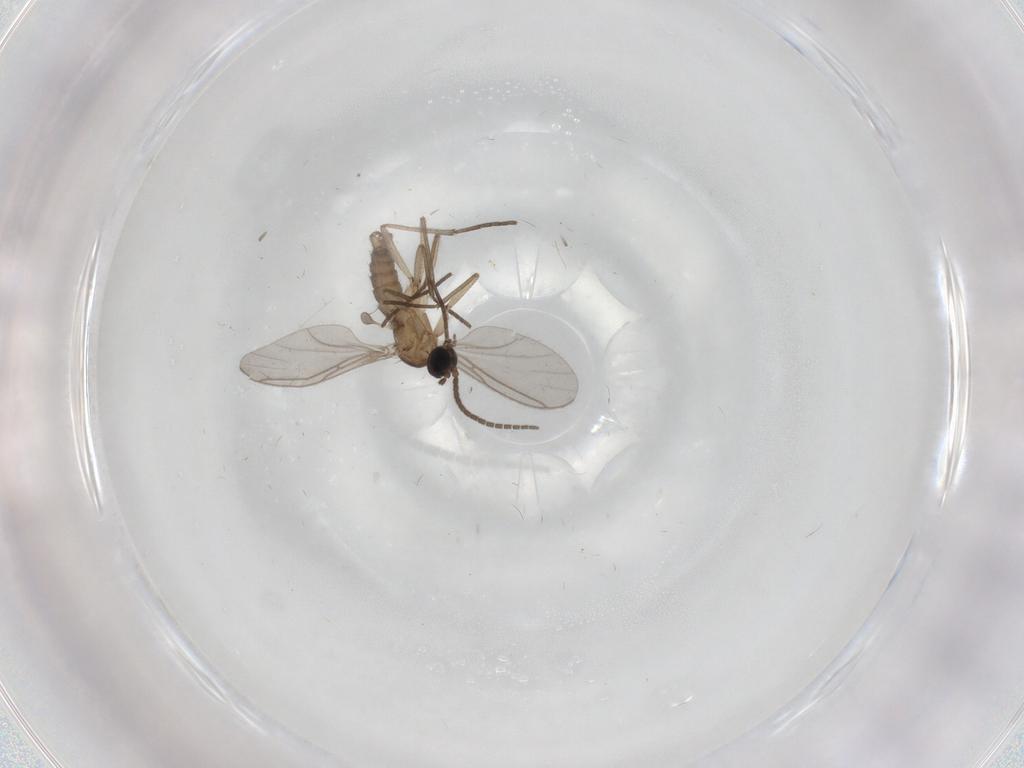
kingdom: Animalia
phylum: Arthropoda
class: Insecta
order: Diptera
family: Sciaridae
